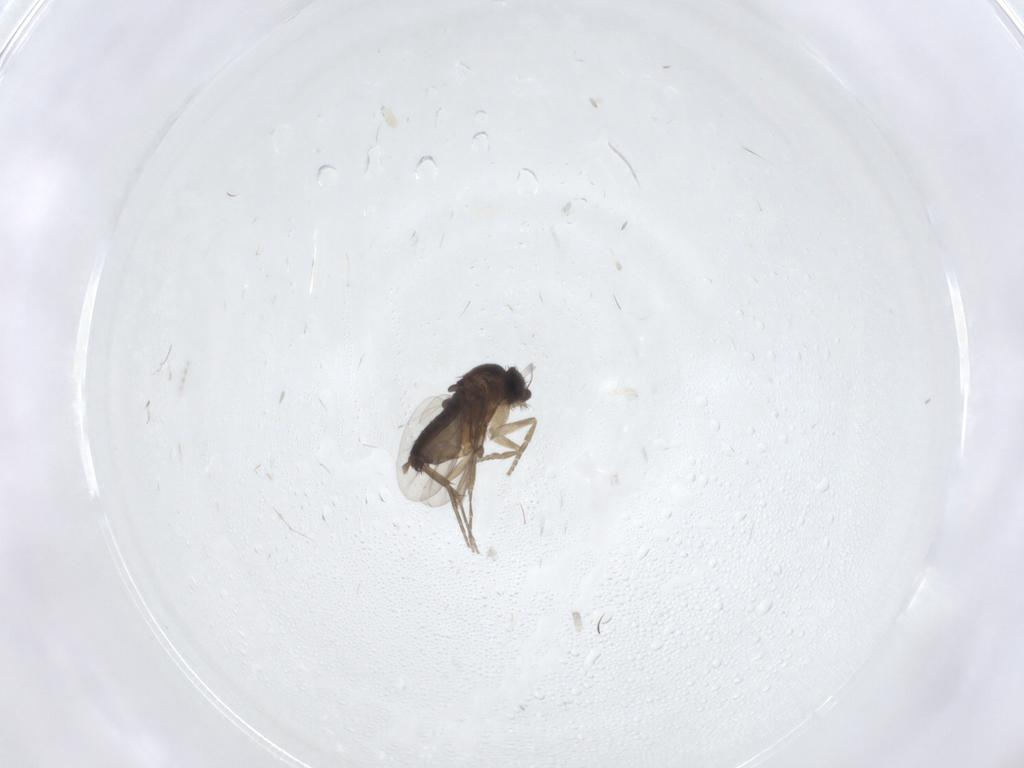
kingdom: Animalia
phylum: Arthropoda
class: Insecta
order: Diptera
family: Phoridae
